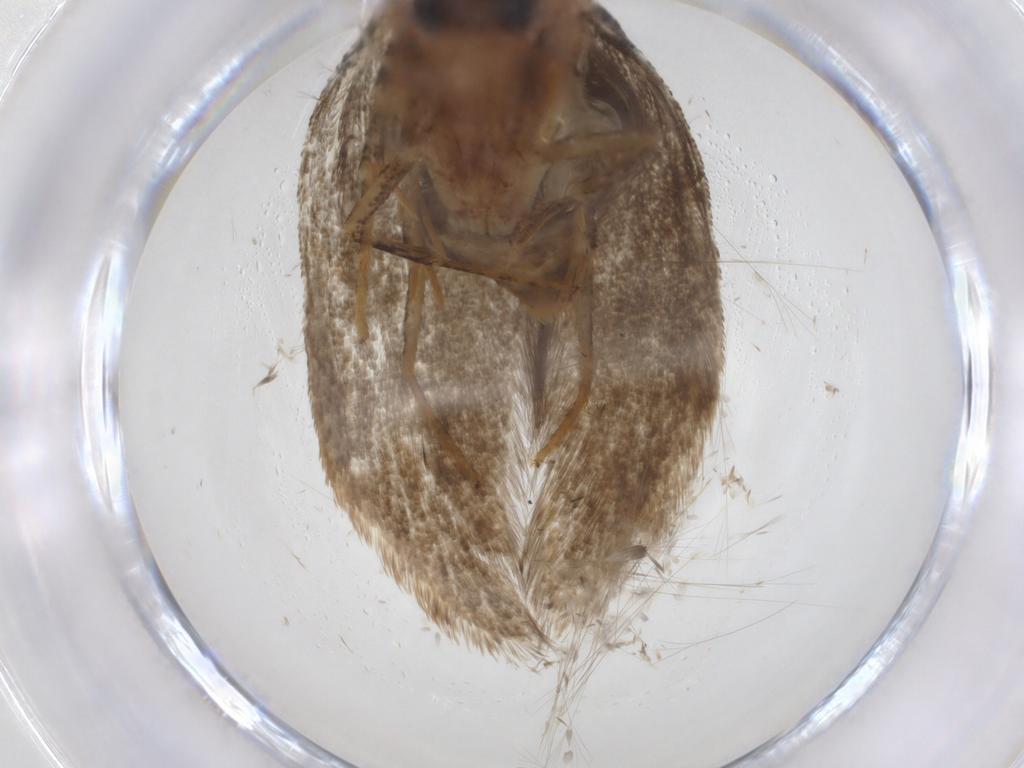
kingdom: Animalia
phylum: Arthropoda
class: Insecta
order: Lepidoptera
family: Blastobasidae
